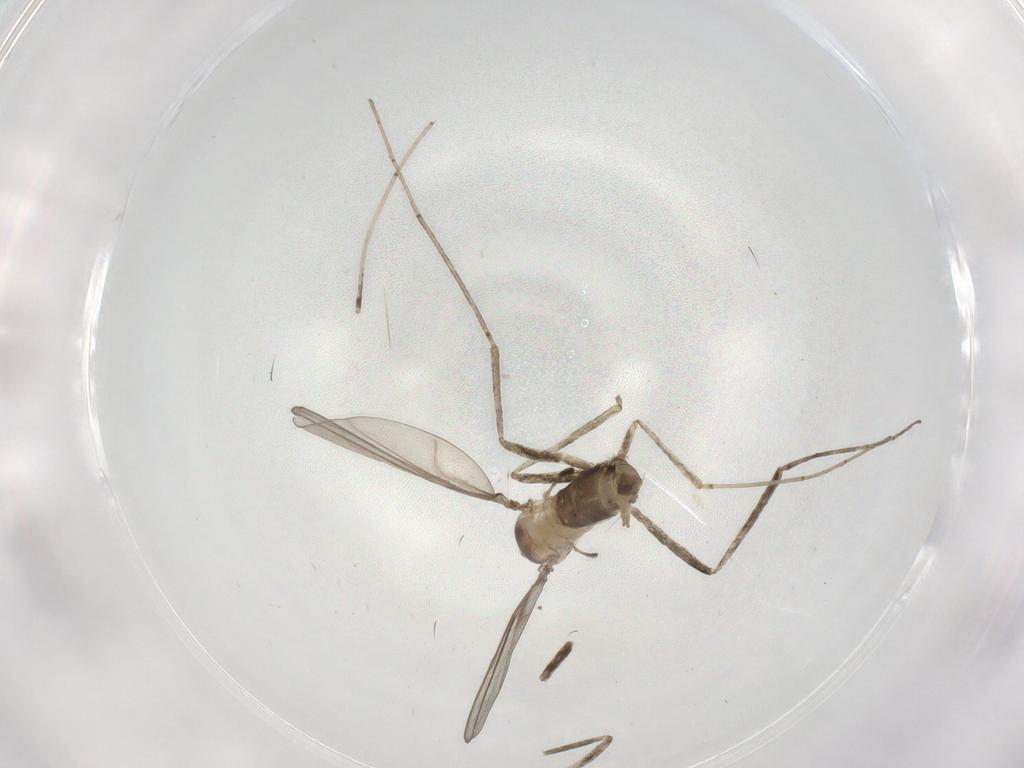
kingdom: Animalia
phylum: Arthropoda
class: Insecta
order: Diptera
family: Cecidomyiidae
